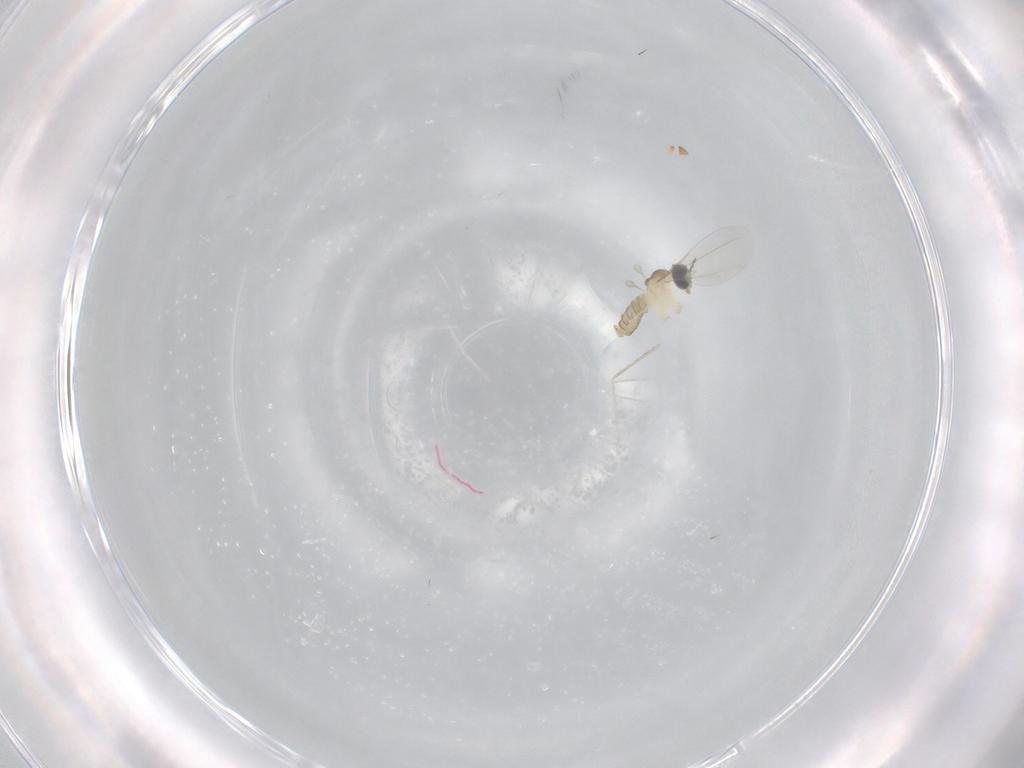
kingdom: Animalia
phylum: Arthropoda
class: Insecta
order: Diptera
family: Cecidomyiidae
